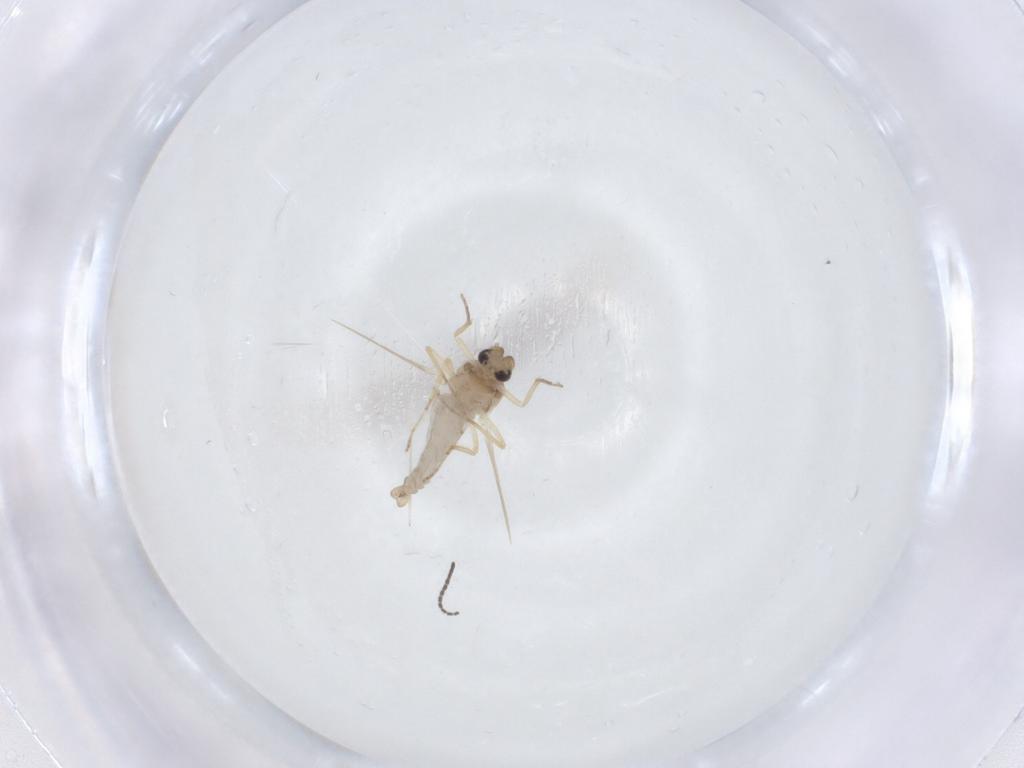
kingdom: Animalia
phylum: Arthropoda
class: Insecta
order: Diptera
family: Ceratopogonidae
